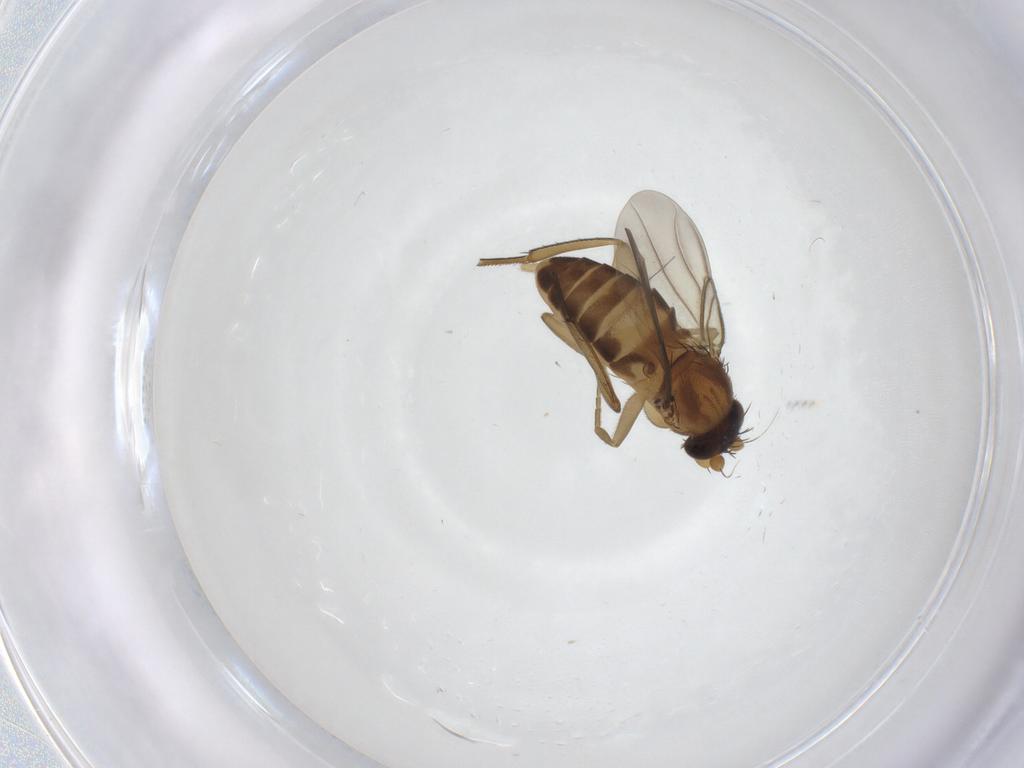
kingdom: Animalia
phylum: Arthropoda
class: Insecta
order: Diptera
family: Phoridae
